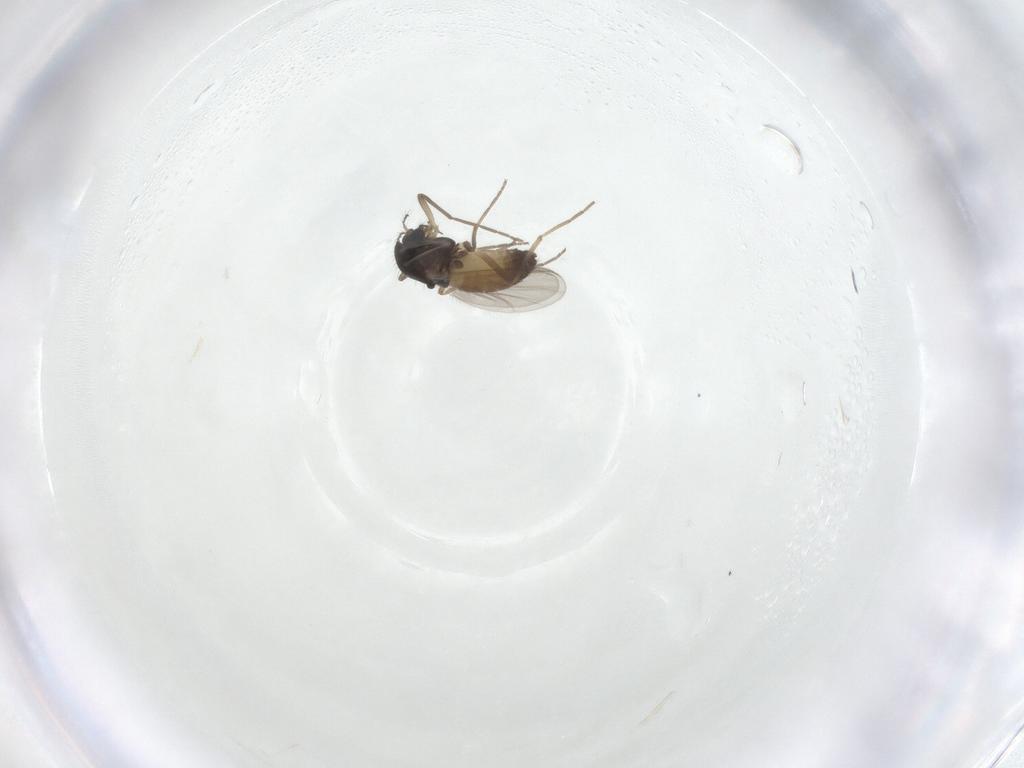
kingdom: Animalia
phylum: Arthropoda
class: Insecta
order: Diptera
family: Chironomidae
